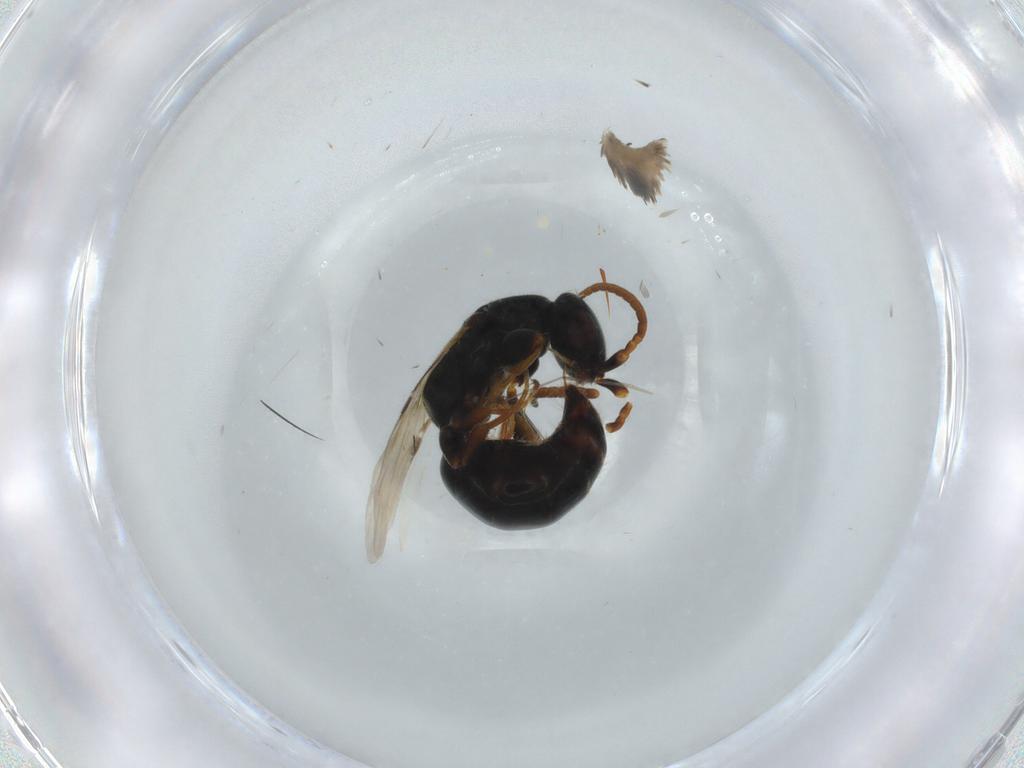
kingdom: Animalia
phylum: Arthropoda
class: Insecta
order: Hymenoptera
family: Bethylidae
